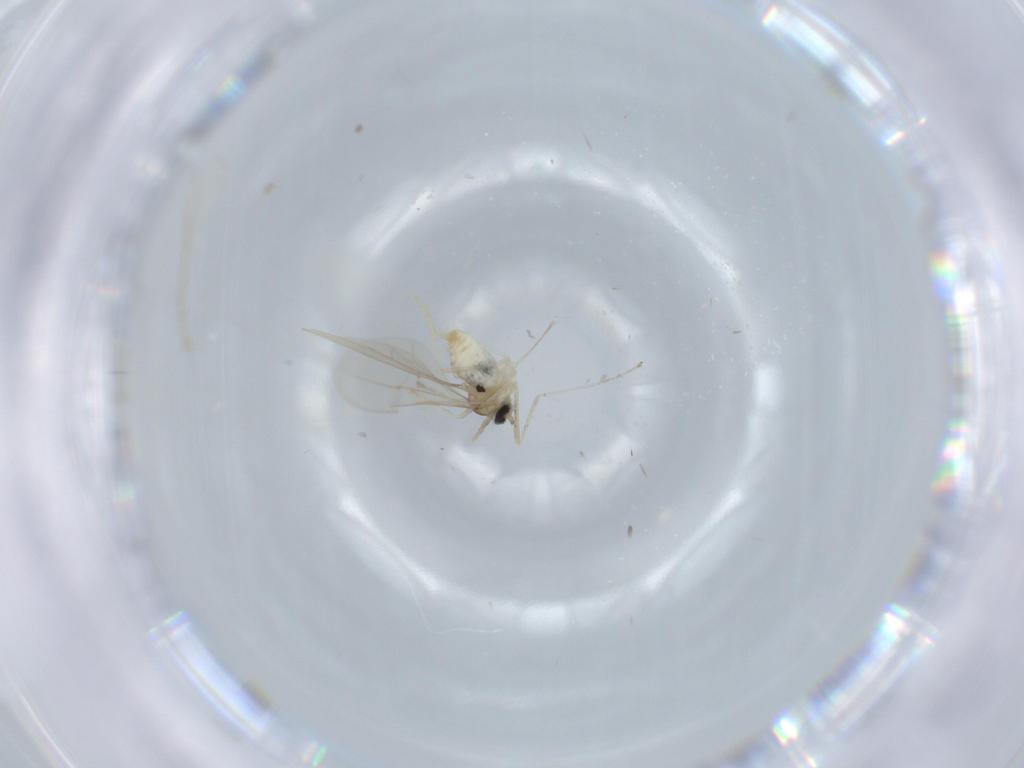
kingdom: Animalia
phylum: Arthropoda
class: Insecta
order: Diptera
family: Cecidomyiidae
